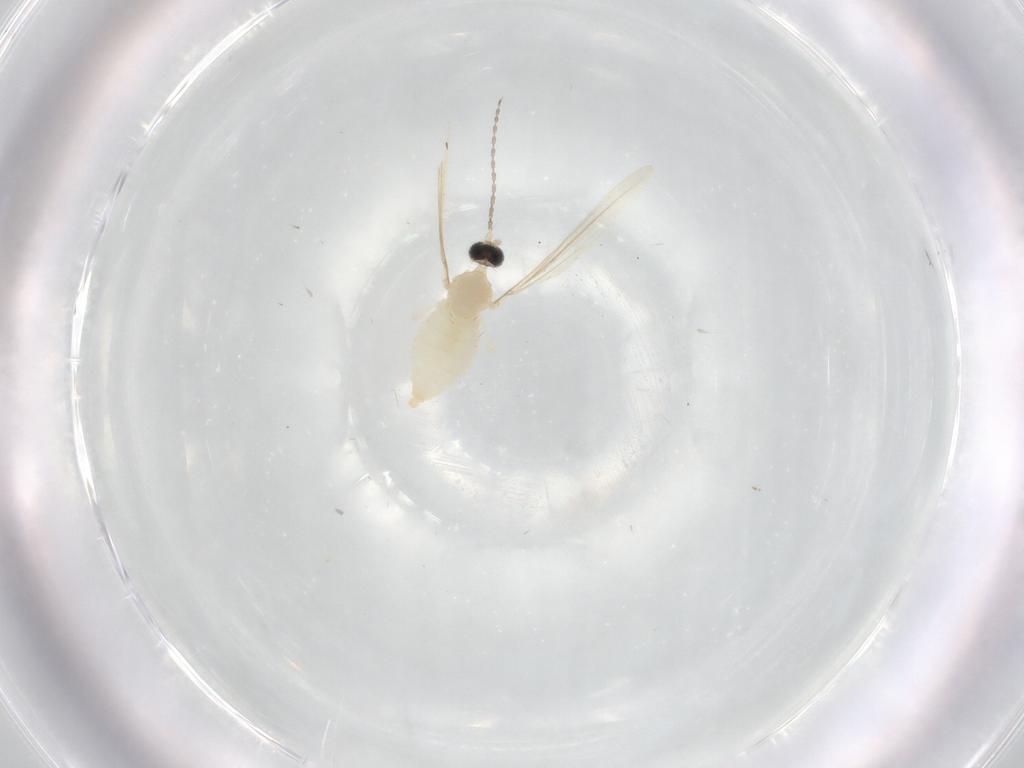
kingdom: Animalia
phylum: Arthropoda
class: Insecta
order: Diptera
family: Cecidomyiidae
